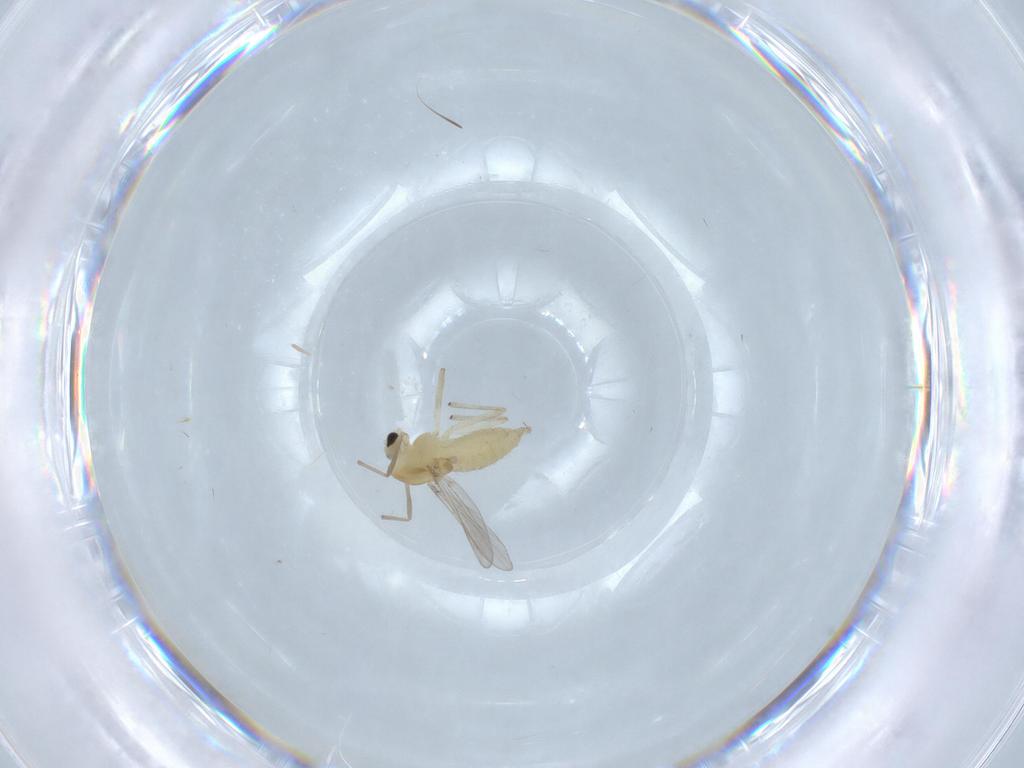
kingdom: Animalia
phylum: Arthropoda
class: Insecta
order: Diptera
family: Chironomidae
